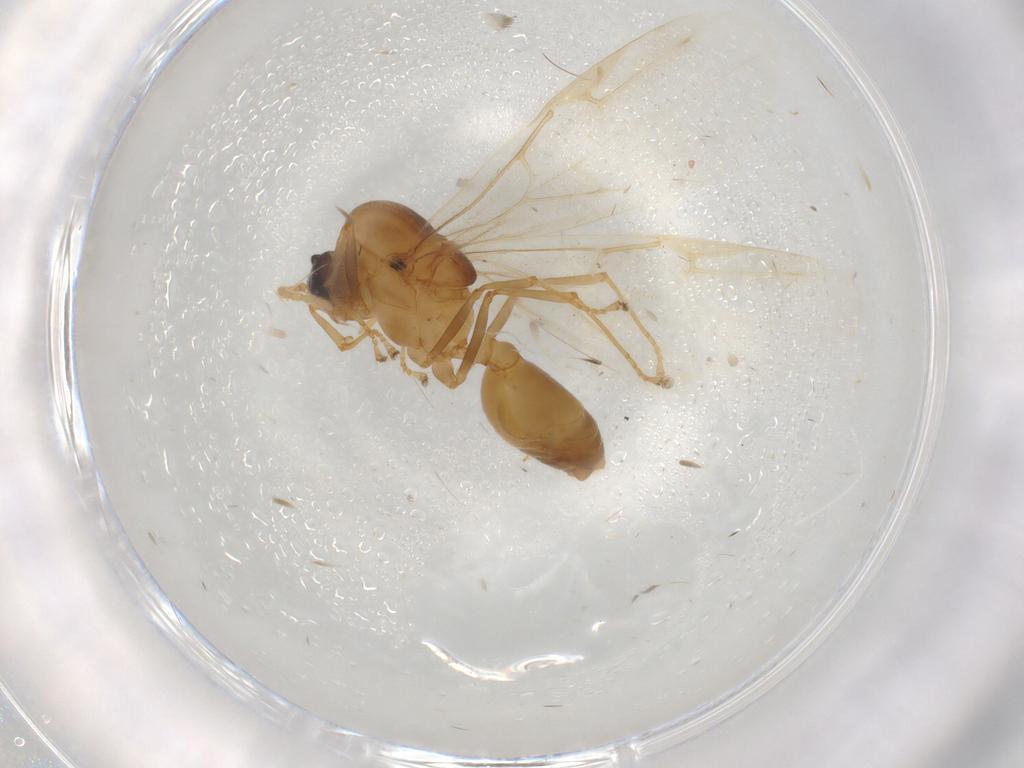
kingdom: Animalia
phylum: Arthropoda
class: Insecta
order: Hymenoptera
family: Formicidae
